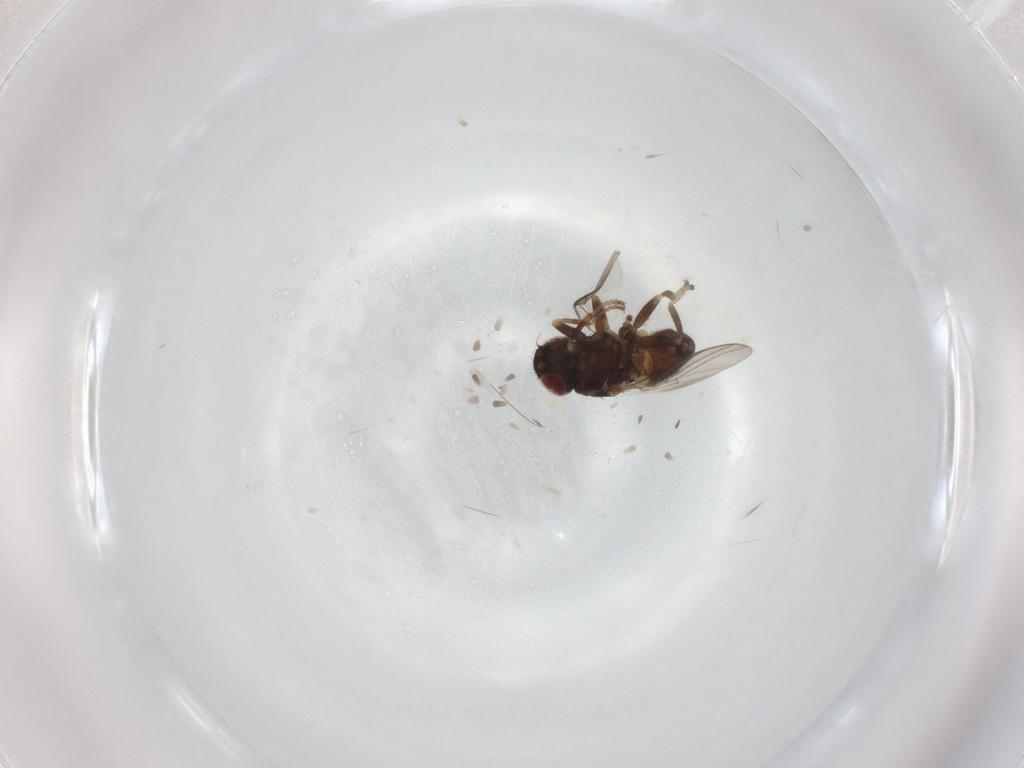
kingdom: Animalia
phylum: Arthropoda
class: Insecta
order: Diptera
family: Chloropidae
